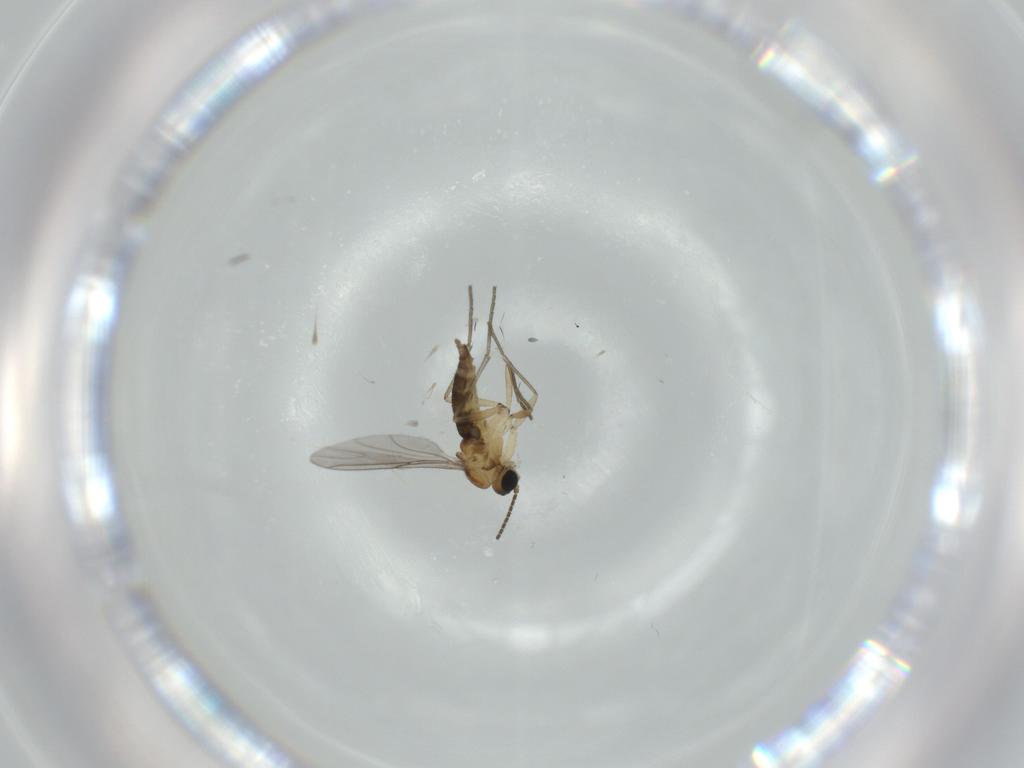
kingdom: Animalia
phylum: Arthropoda
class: Insecta
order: Diptera
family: Sciaridae
